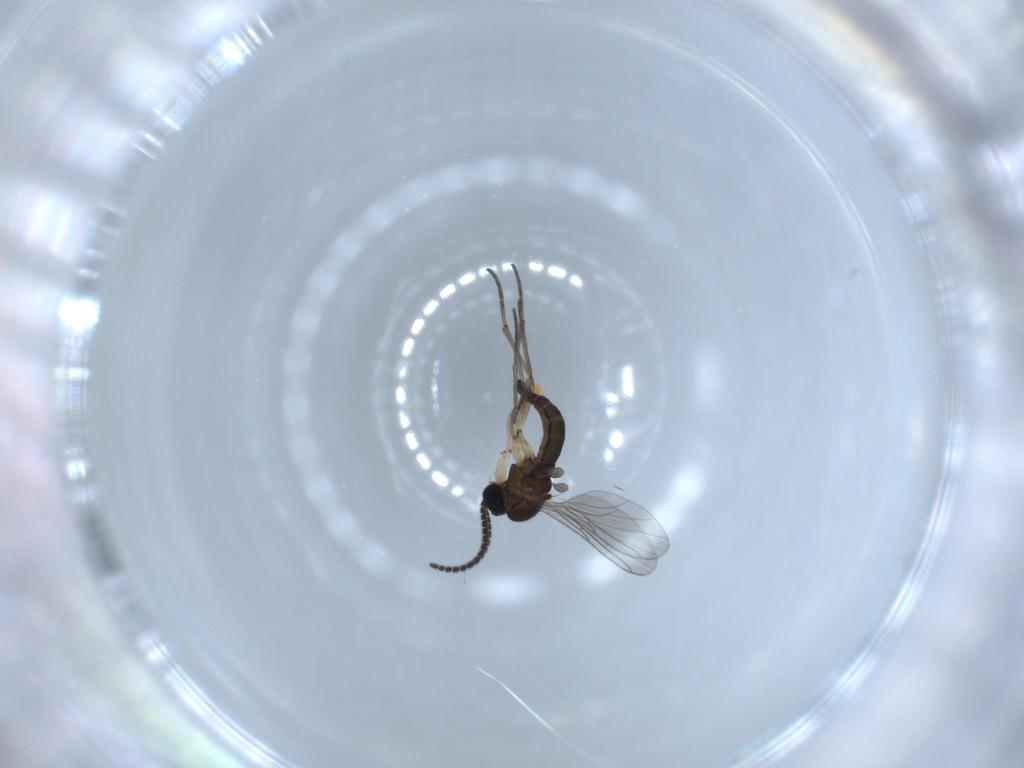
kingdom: Animalia
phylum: Arthropoda
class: Insecta
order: Diptera
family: Sciaridae
